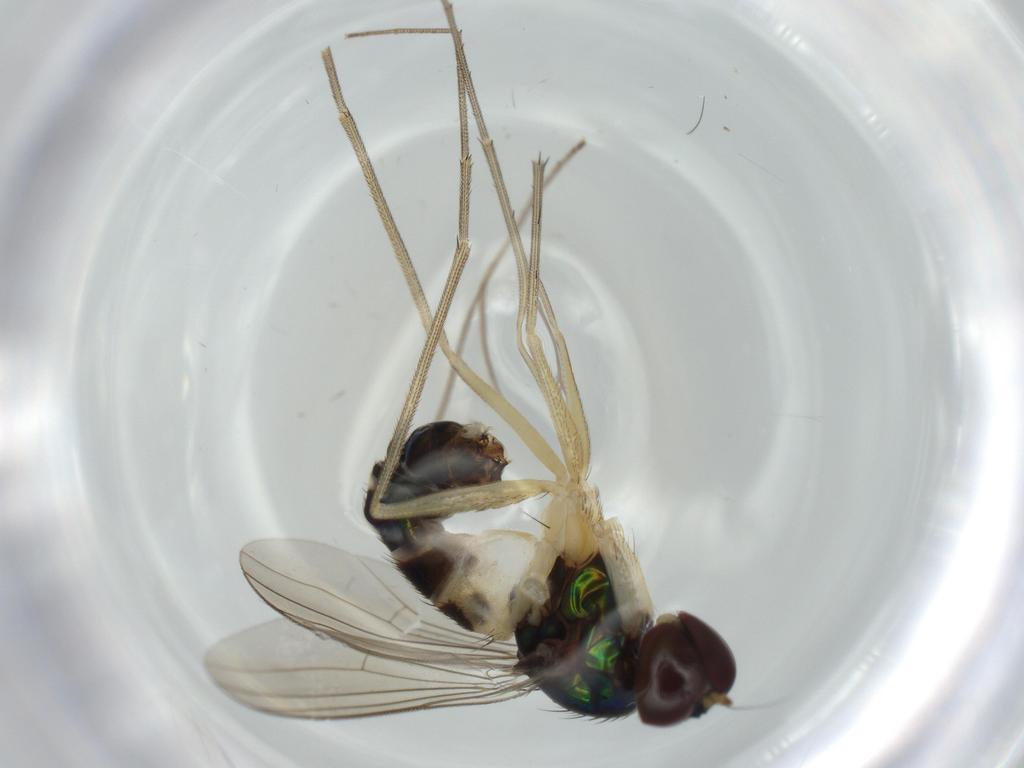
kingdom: Animalia
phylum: Arthropoda
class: Insecta
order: Diptera
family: Dolichopodidae
